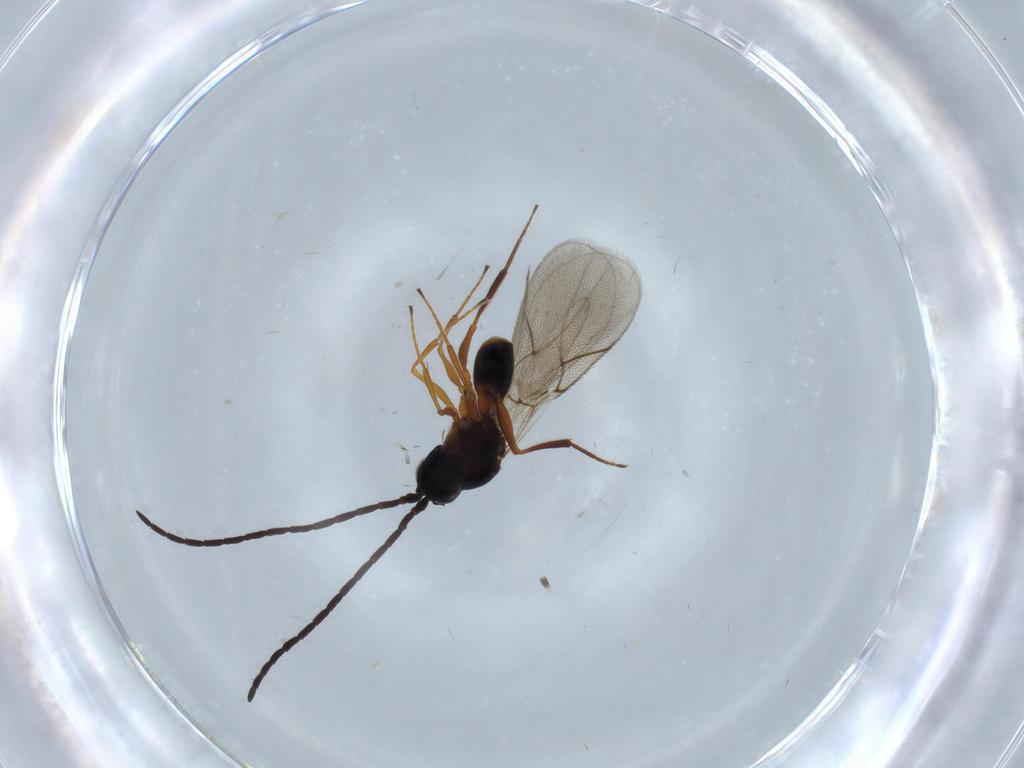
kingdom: Animalia
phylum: Arthropoda
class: Insecta
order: Hymenoptera
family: Figitidae
